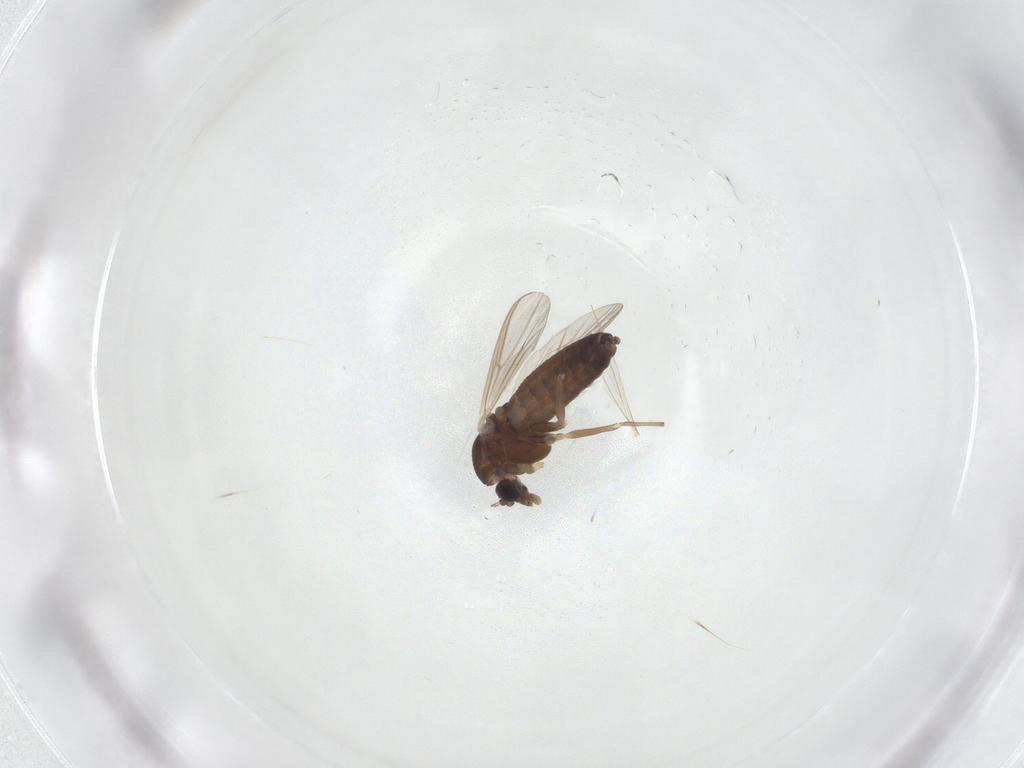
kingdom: Animalia
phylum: Arthropoda
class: Insecta
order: Diptera
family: Chironomidae
